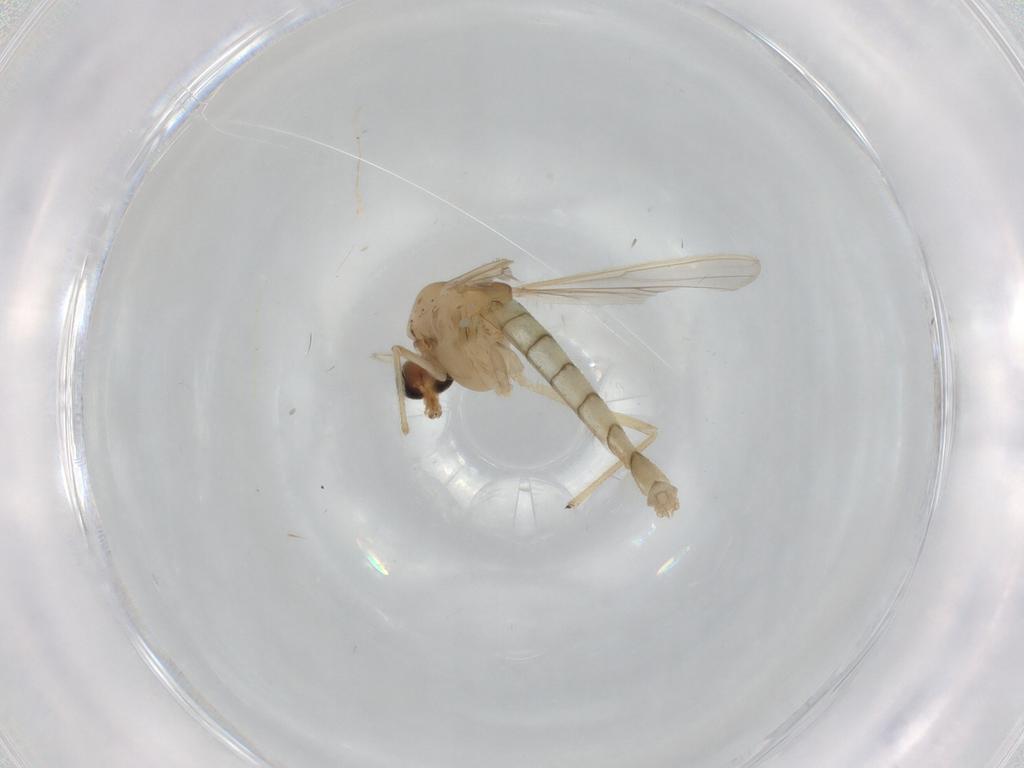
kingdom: Animalia
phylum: Arthropoda
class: Insecta
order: Diptera
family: Chironomidae
